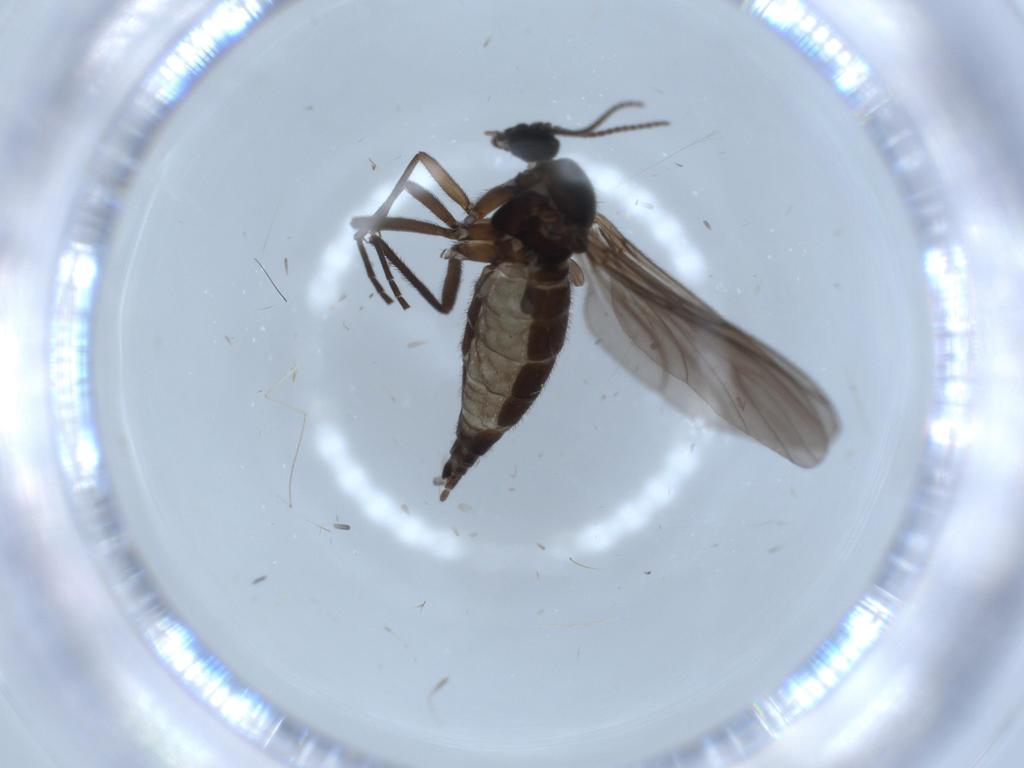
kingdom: Animalia
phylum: Arthropoda
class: Insecta
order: Diptera
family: Sciaridae
